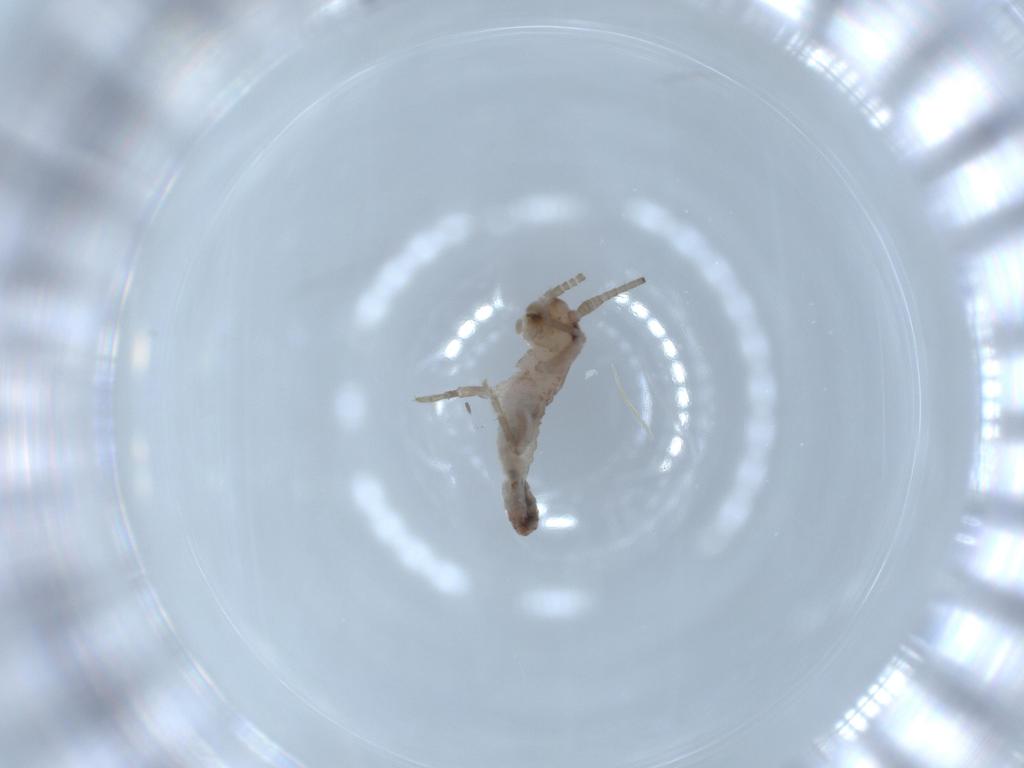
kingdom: Animalia
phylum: Arthropoda
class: Insecta
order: Orthoptera
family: Mogoplistidae
